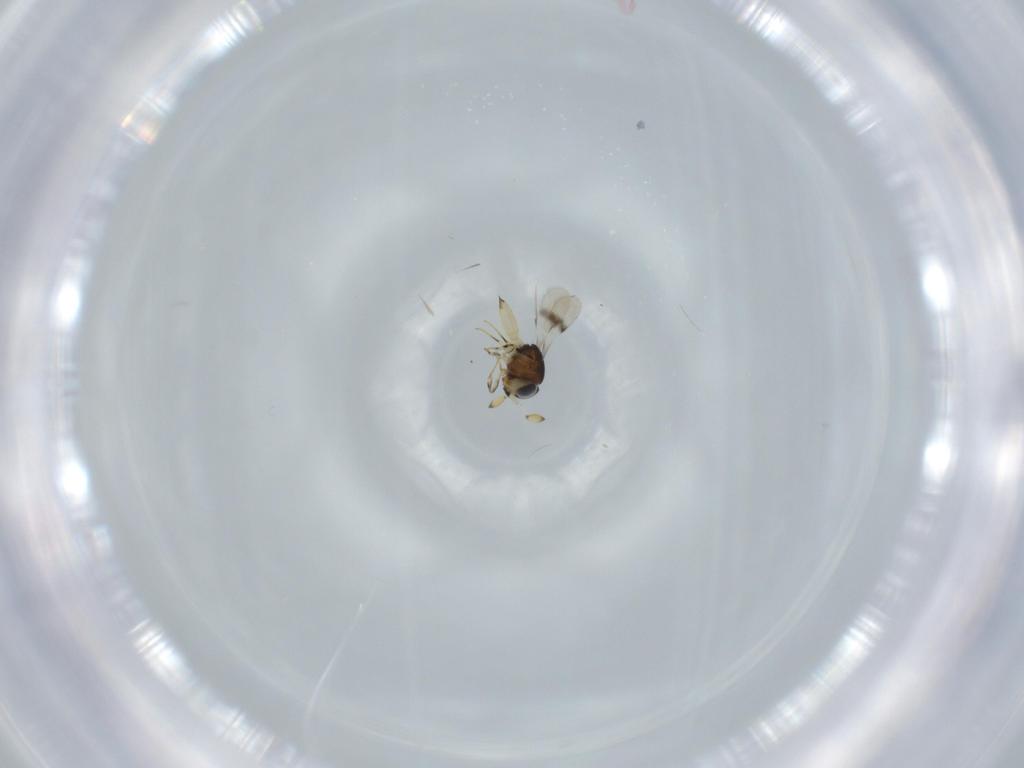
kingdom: Animalia
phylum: Arthropoda
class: Insecta
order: Hymenoptera
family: Scelionidae
